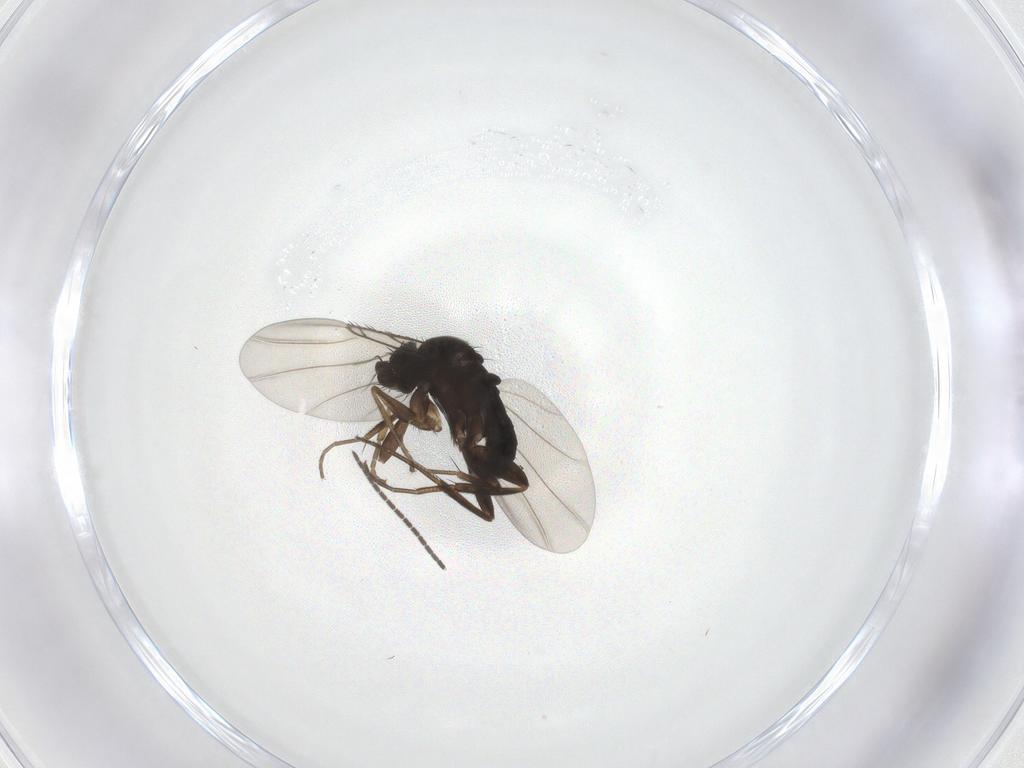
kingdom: Animalia
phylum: Arthropoda
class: Insecta
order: Diptera
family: Phoridae
